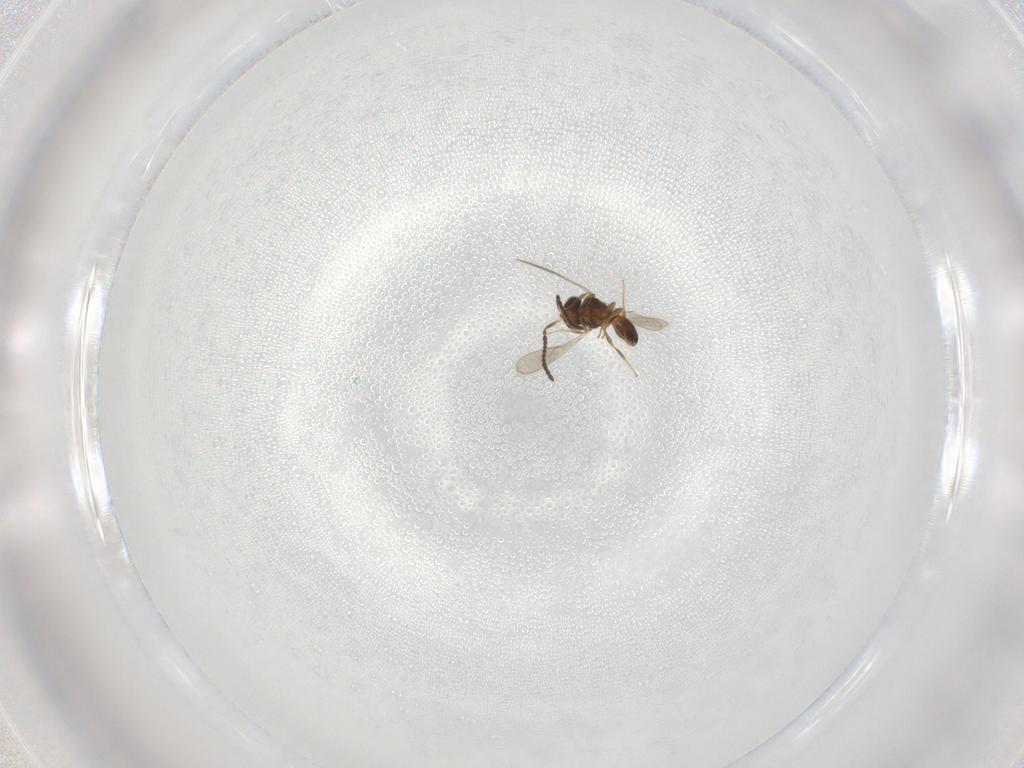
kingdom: Animalia
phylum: Arthropoda
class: Insecta
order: Hymenoptera
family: Scelionidae
